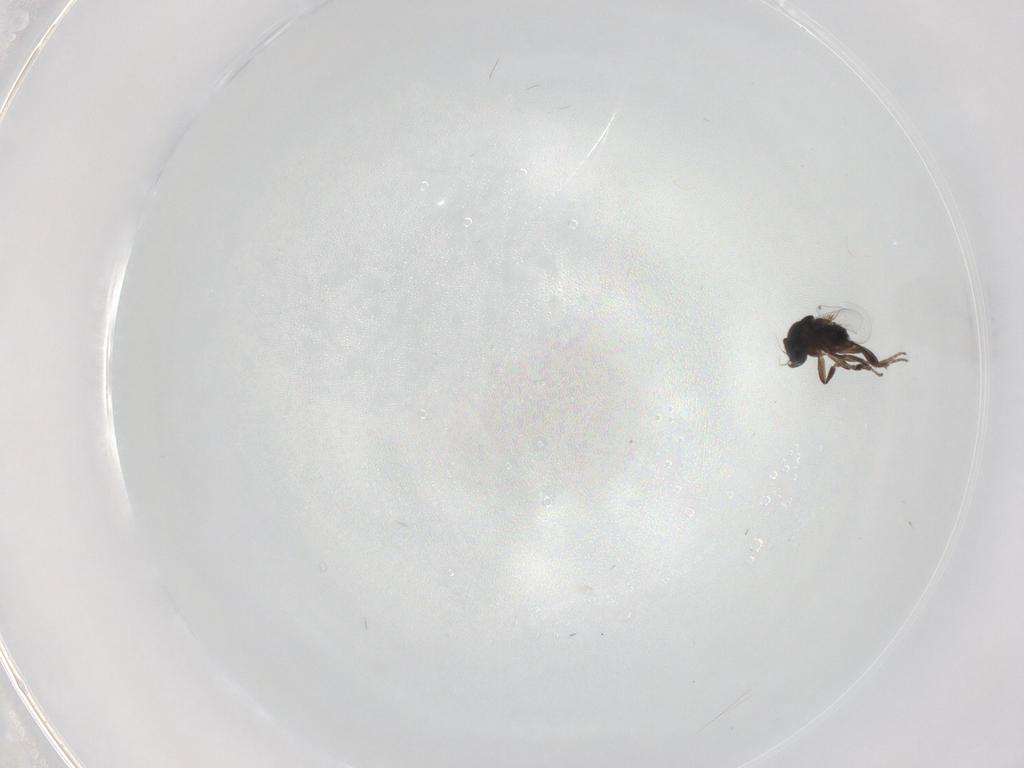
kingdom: Animalia
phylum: Arthropoda
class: Insecta
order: Diptera
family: Phoridae
